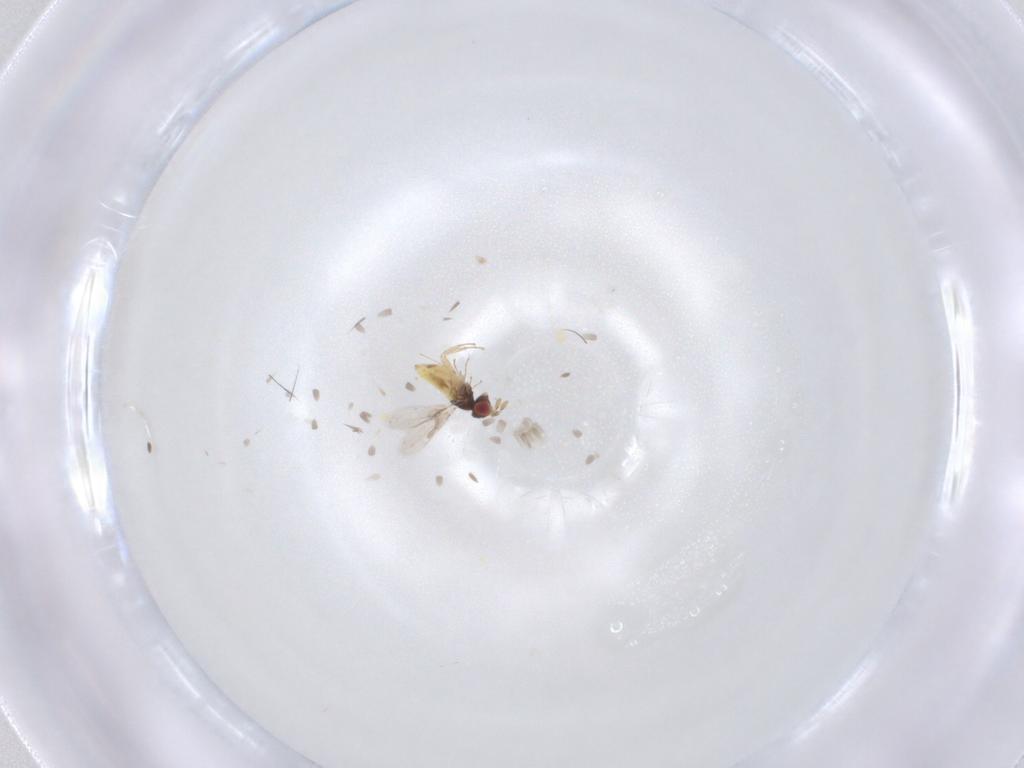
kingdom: Animalia
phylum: Arthropoda
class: Insecta
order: Hymenoptera
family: Trichogrammatidae
